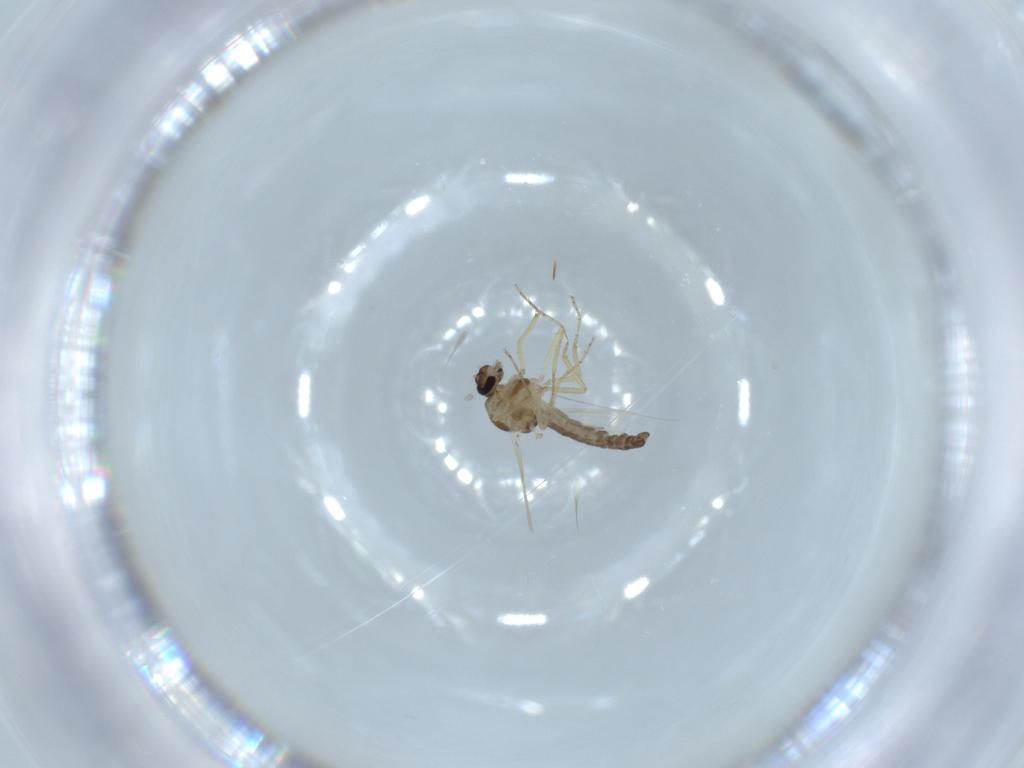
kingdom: Animalia
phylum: Arthropoda
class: Insecta
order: Diptera
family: Ceratopogonidae
